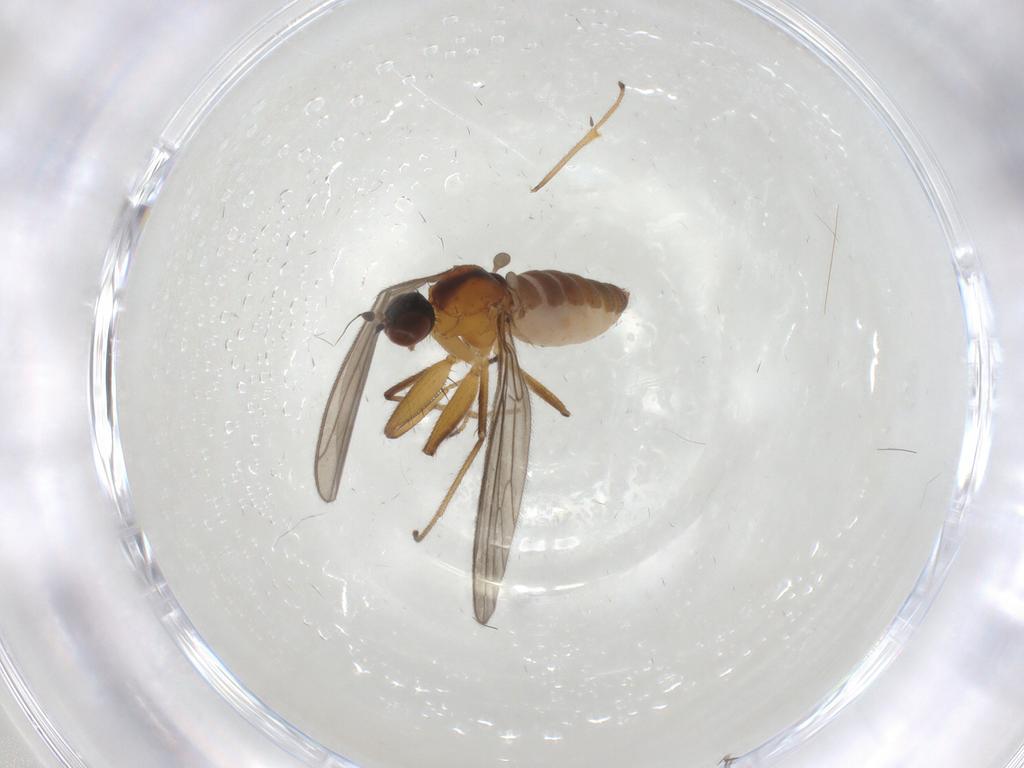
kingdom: Animalia
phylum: Arthropoda
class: Insecta
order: Diptera
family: Empididae
